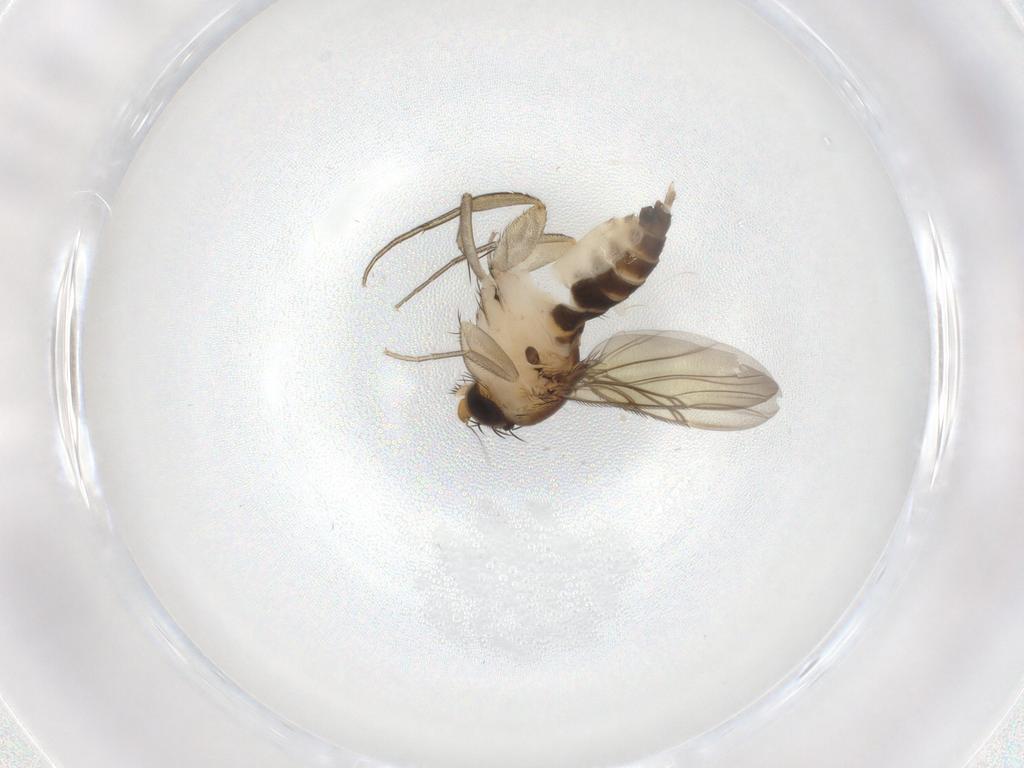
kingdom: Animalia
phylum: Arthropoda
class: Insecta
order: Diptera
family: Phoridae
